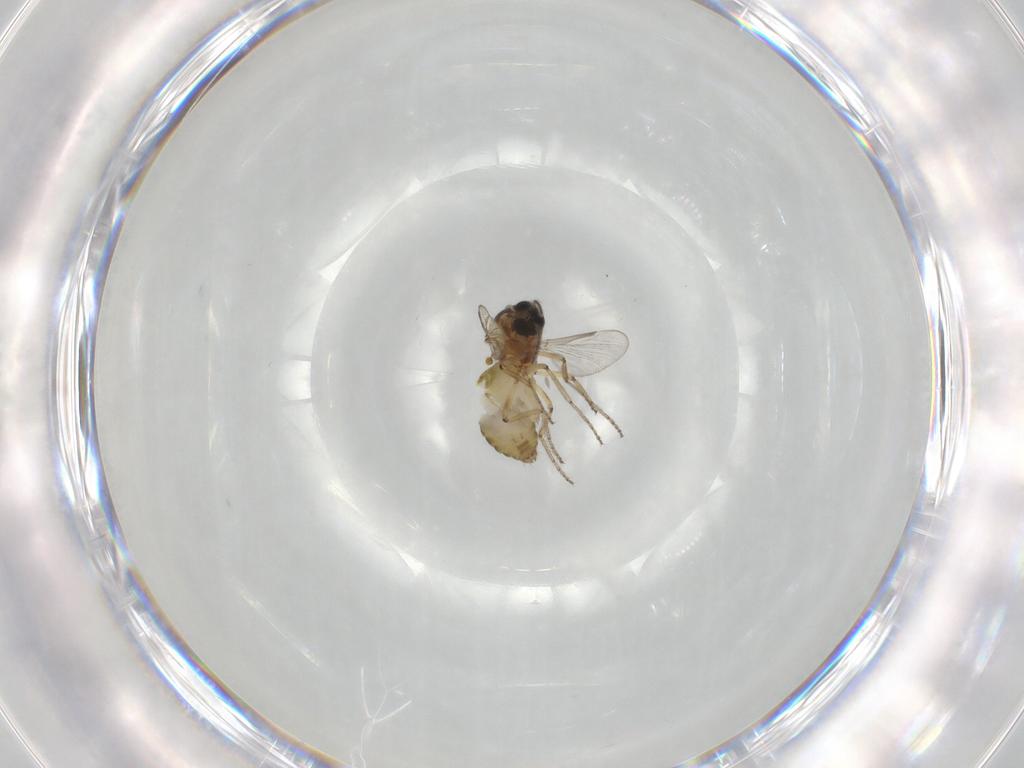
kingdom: Animalia
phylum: Arthropoda
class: Insecta
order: Diptera
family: Ceratopogonidae
